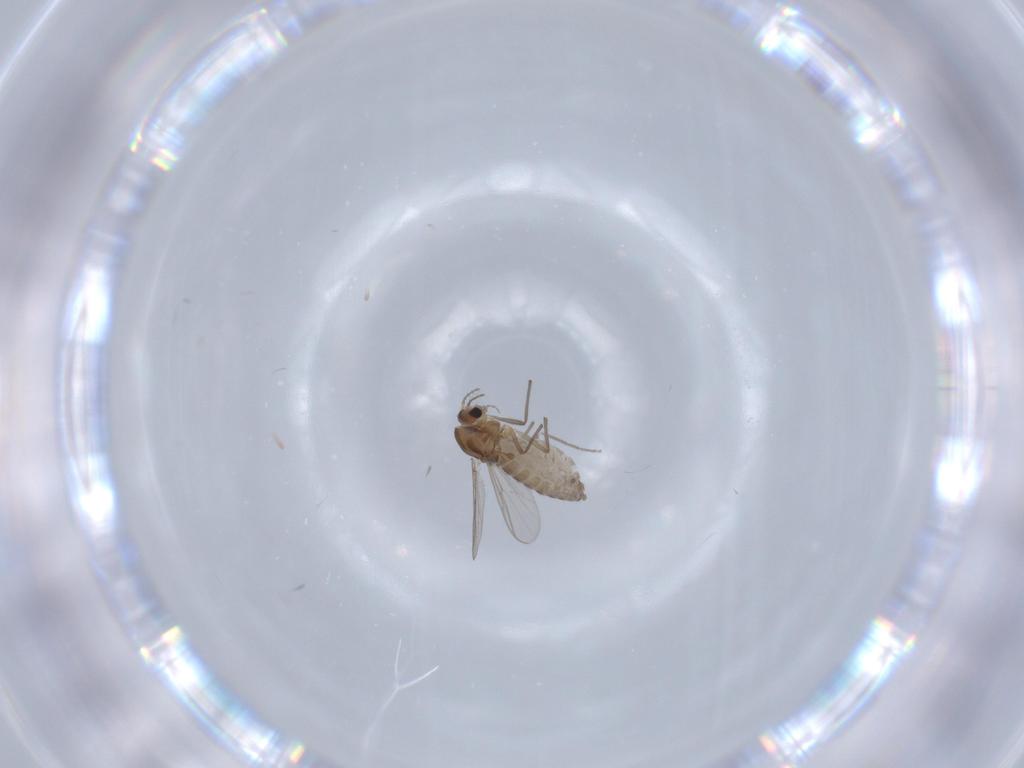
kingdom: Animalia
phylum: Arthropoda
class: Insecta
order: Diptera
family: Chironomidae
